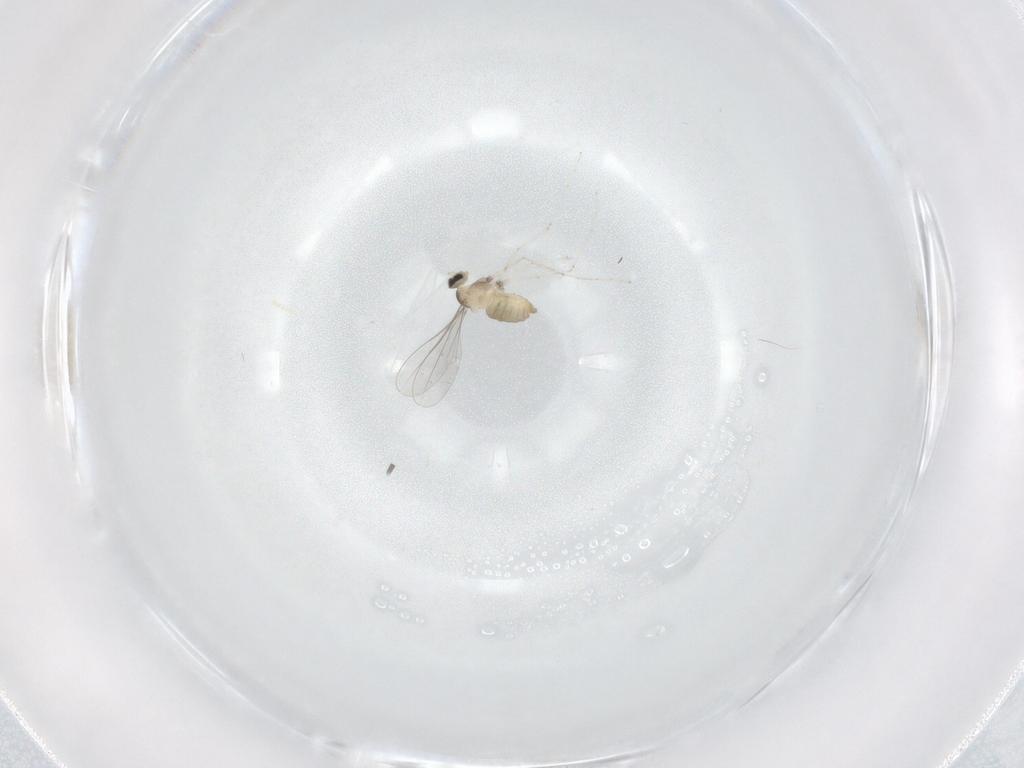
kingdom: Animalia
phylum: Arthropoda
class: Insecta
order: Diptera
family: Cecidomyiidae
